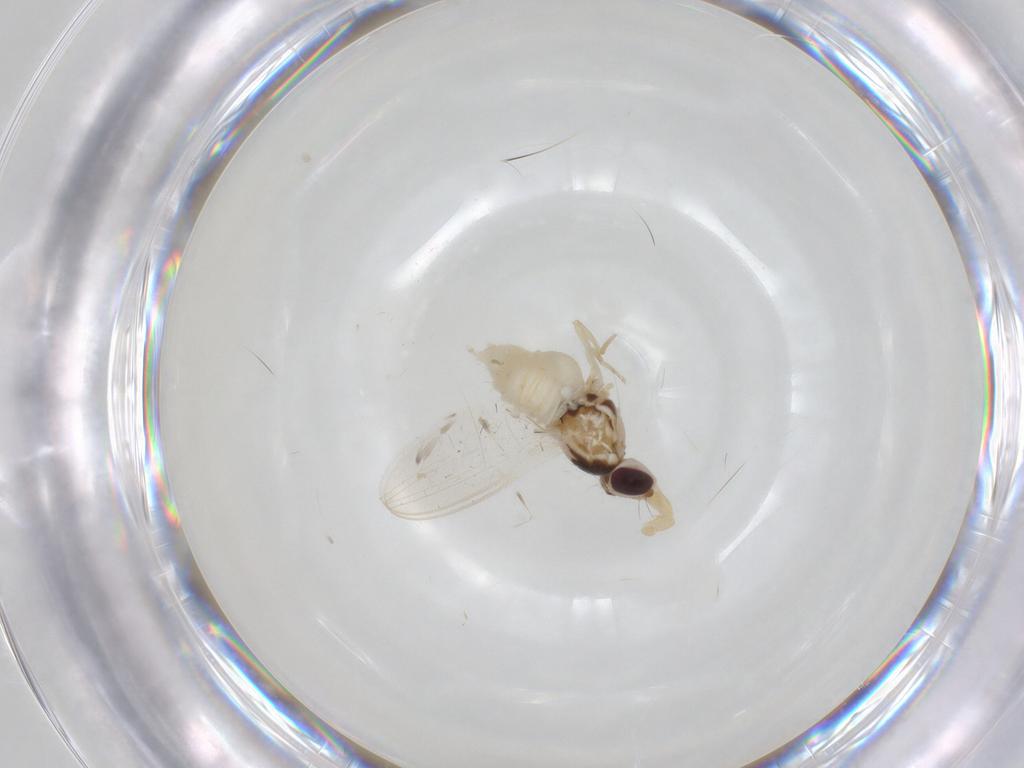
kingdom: Animalia
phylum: Arthropoda
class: Insecta
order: Diptera
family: Chloropidae
